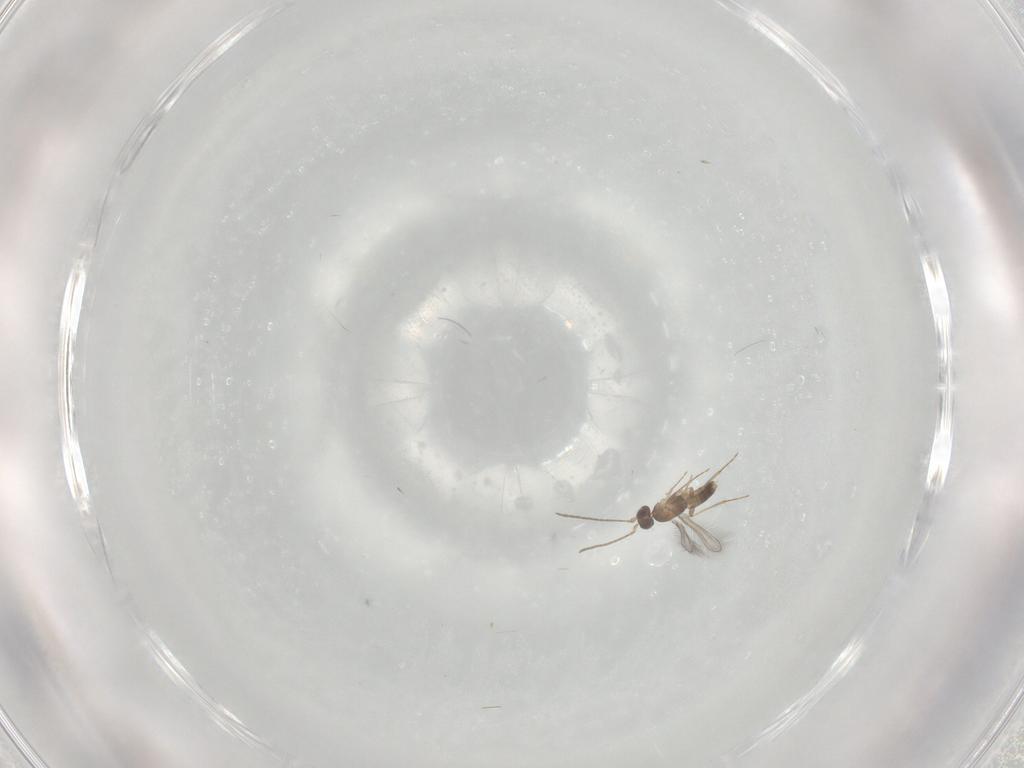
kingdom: Animalia
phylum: Arthropoda
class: Insecta
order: Hymenoptera
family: Mymaridae
